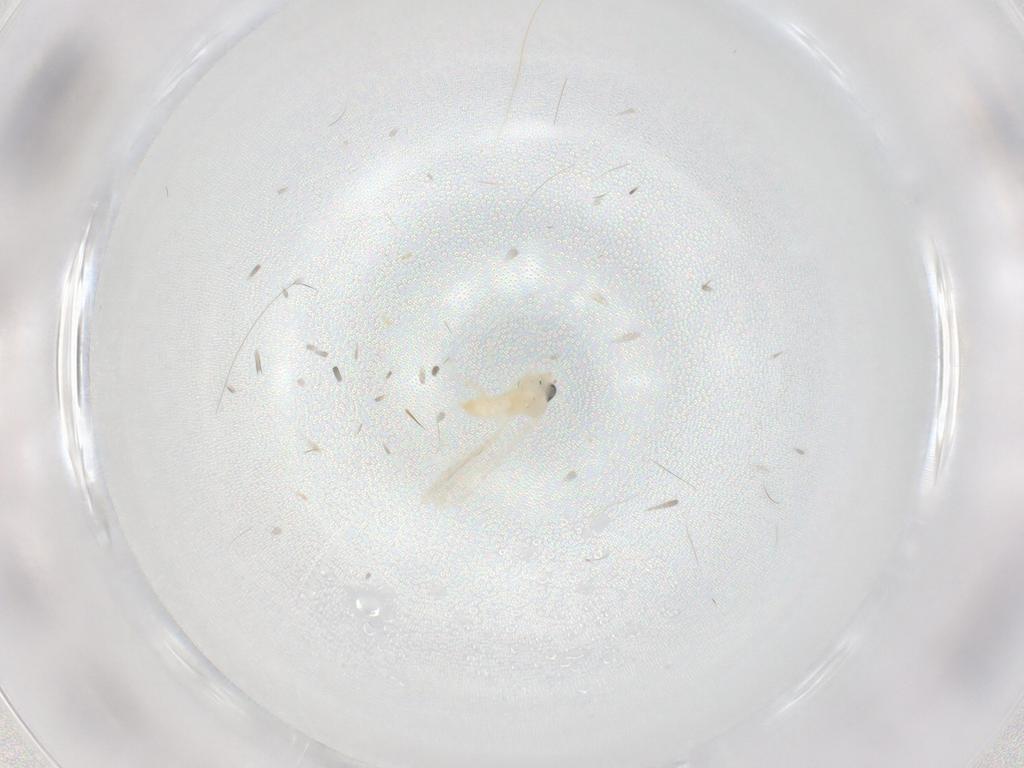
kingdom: Animalia
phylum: Arthropoda
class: Insecta
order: Diptera
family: Cecidomyiidae
